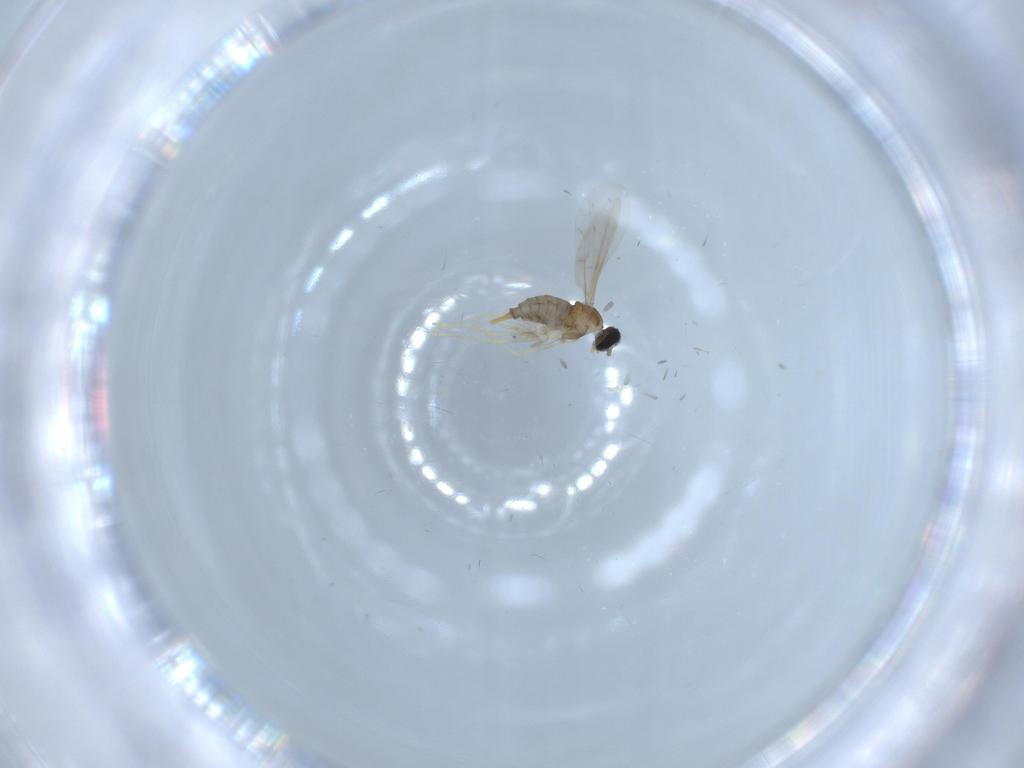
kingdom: Animalia
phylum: Arthropoda
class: Insecta
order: Diptera
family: Cecidomyiidae
